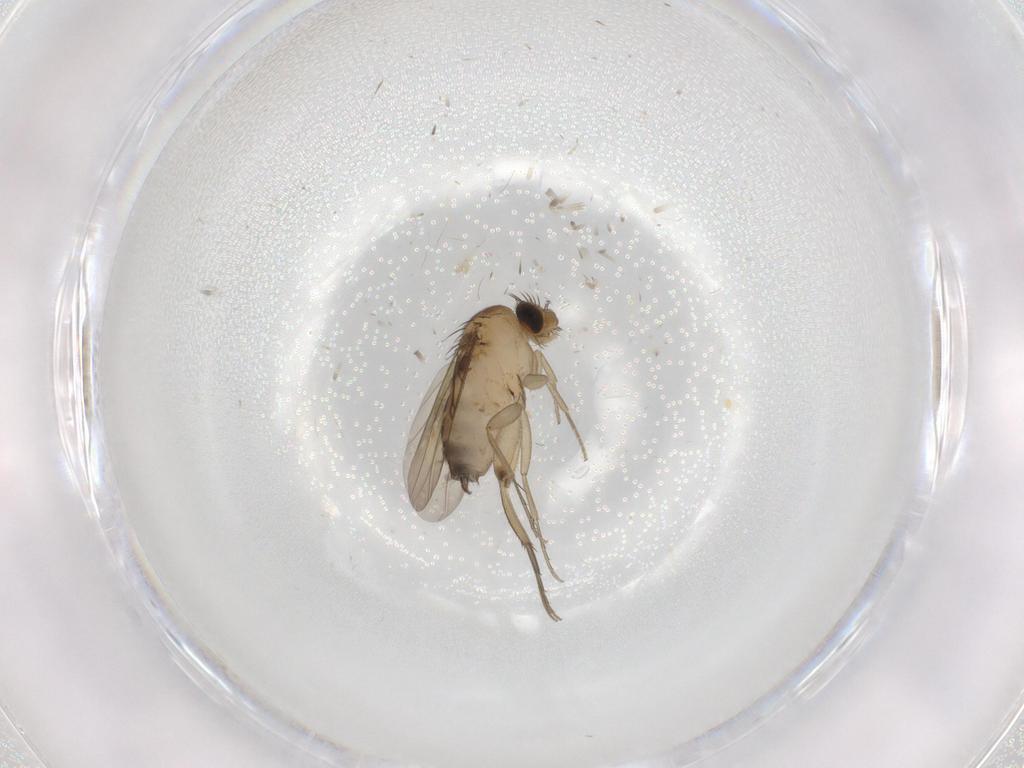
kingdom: Animalia
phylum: Arthropoda
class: Insecta
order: Diptera
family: Phoridae
